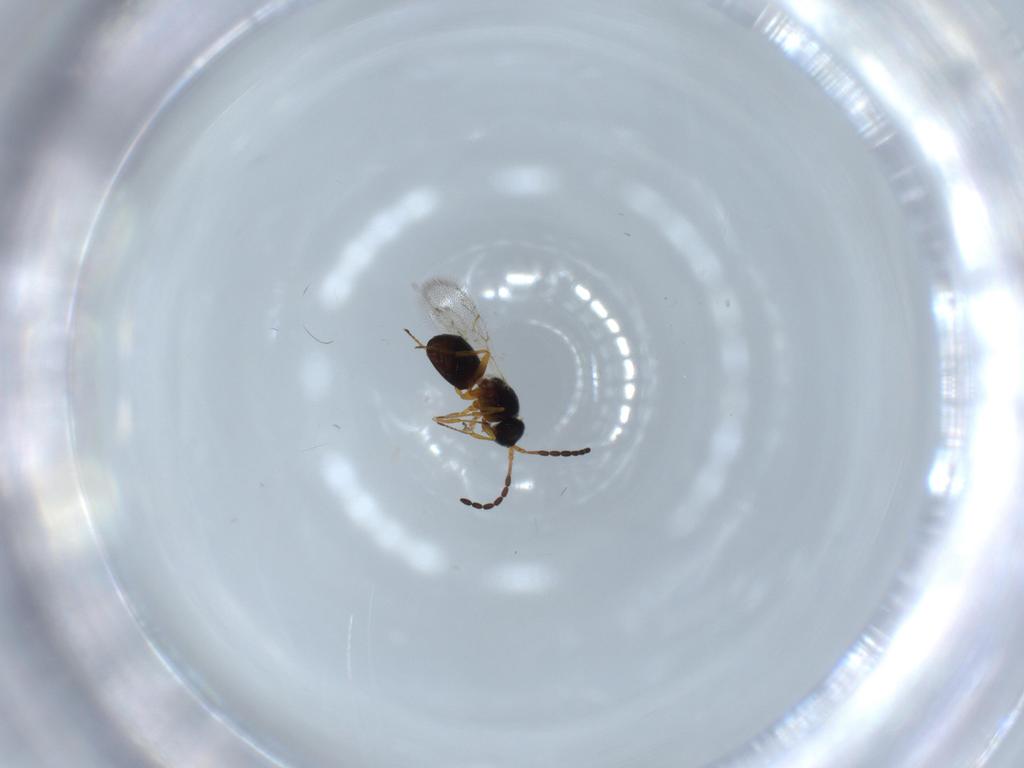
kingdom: Animalia
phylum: Arthropoda
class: Insecta
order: Hymenoptera
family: Figitidae
